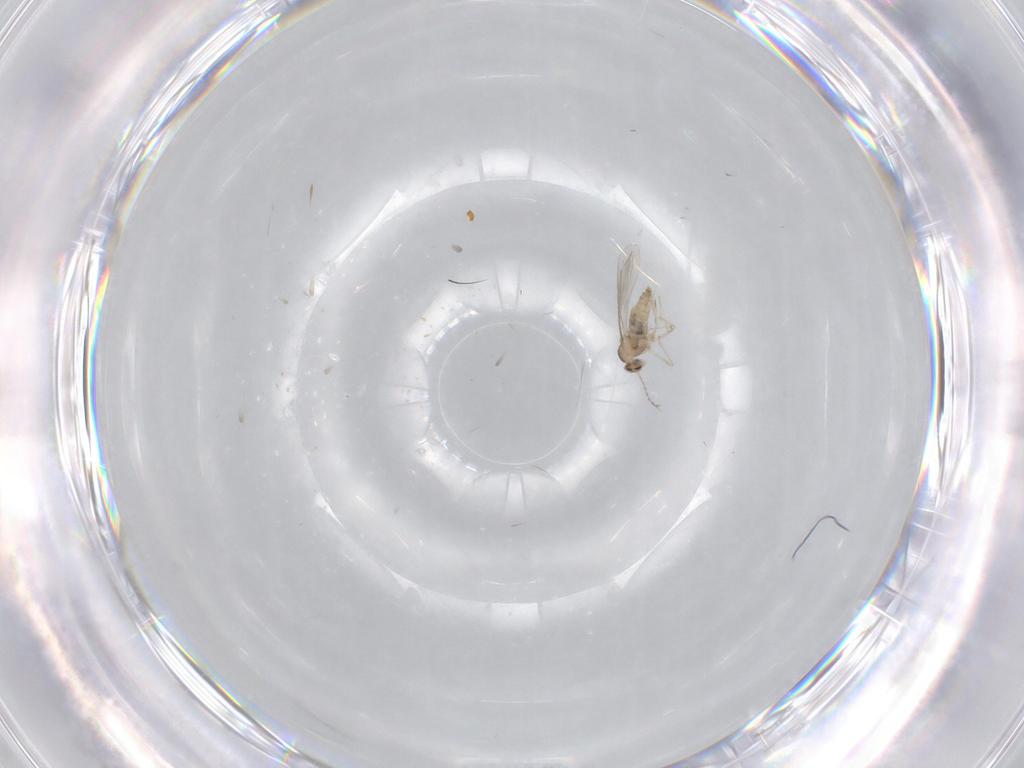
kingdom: Animalia
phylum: Arthropoda
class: Insecta
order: Diptera
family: Cecidomyiidae
